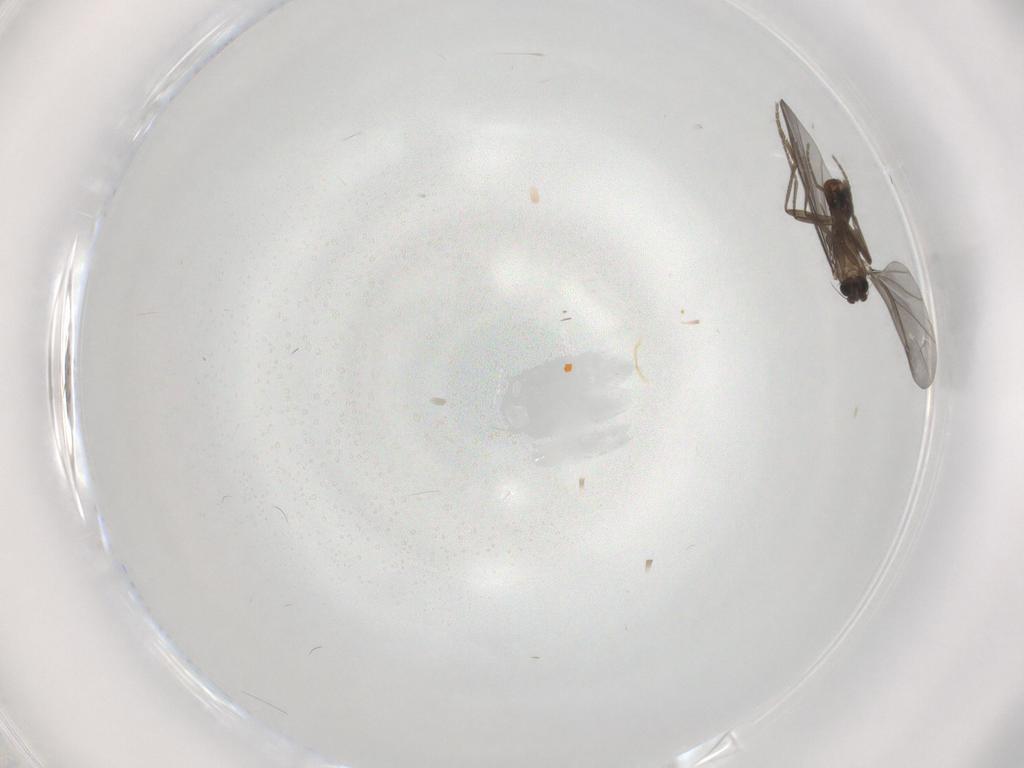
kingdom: Animalia
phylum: Arthropoda
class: Insecta
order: Diptera
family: Phoridae
